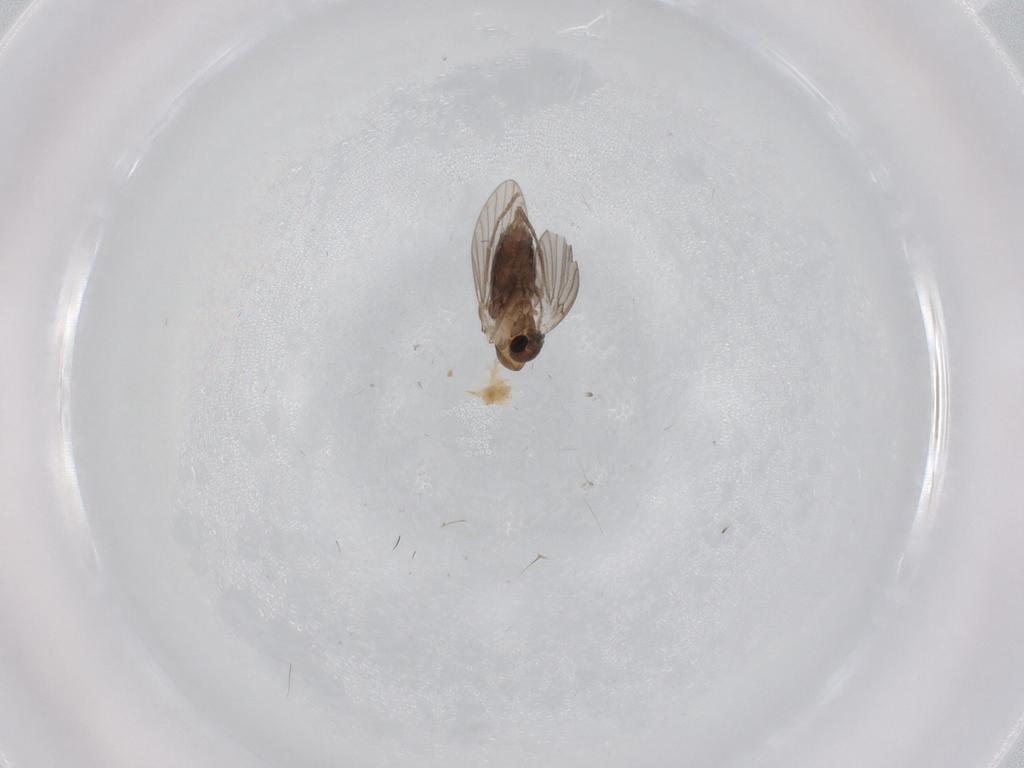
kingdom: Animalia
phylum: Arthropoda
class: Insecta
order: Diptera
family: Psychodidae
